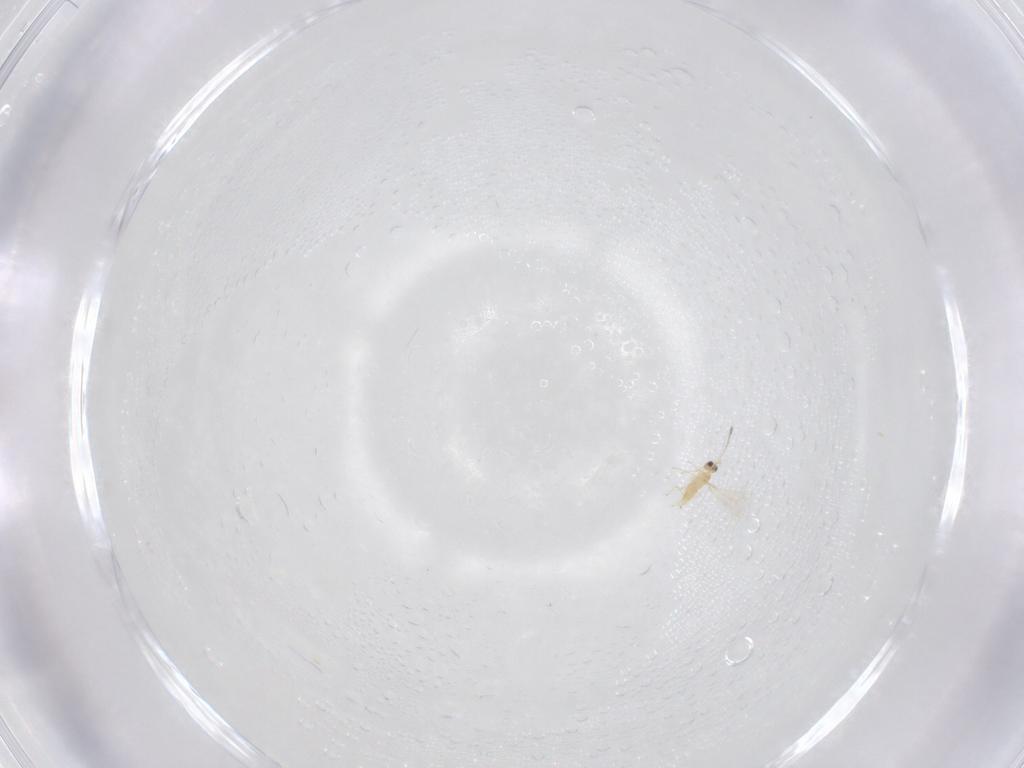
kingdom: Animalia
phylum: Arthropoda
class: Insecta
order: Hymenoptera
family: Mymaridae
